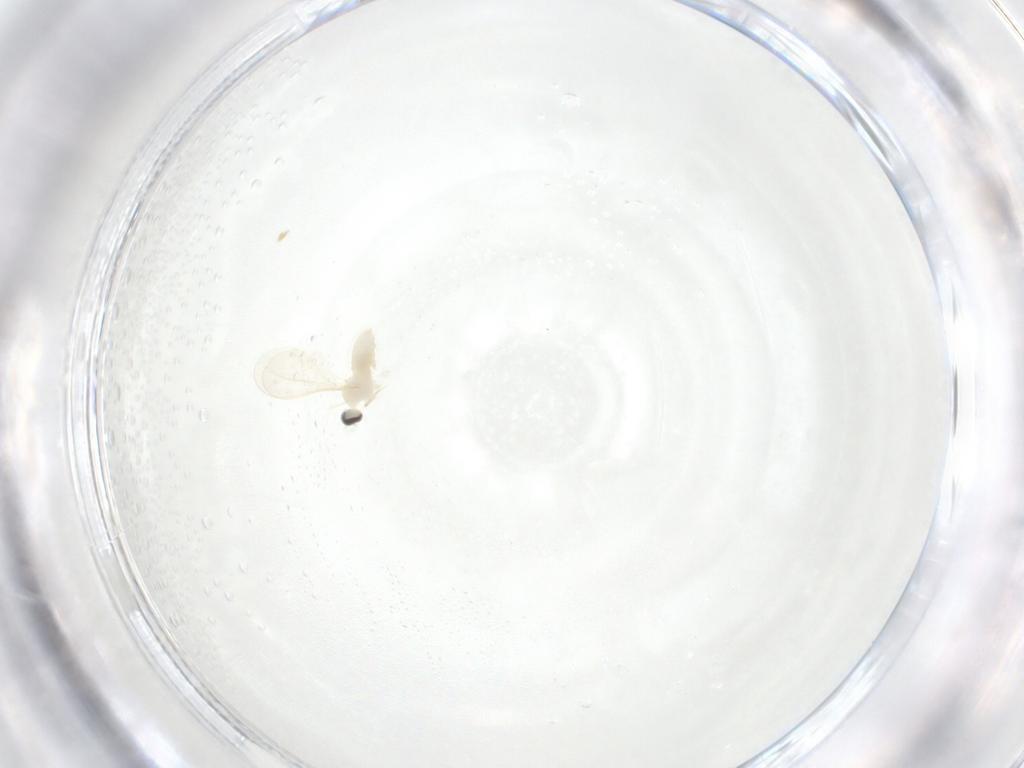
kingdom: Animalia
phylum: Arthropoda
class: Insecta
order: Diptera
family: Cecidomyiidae
